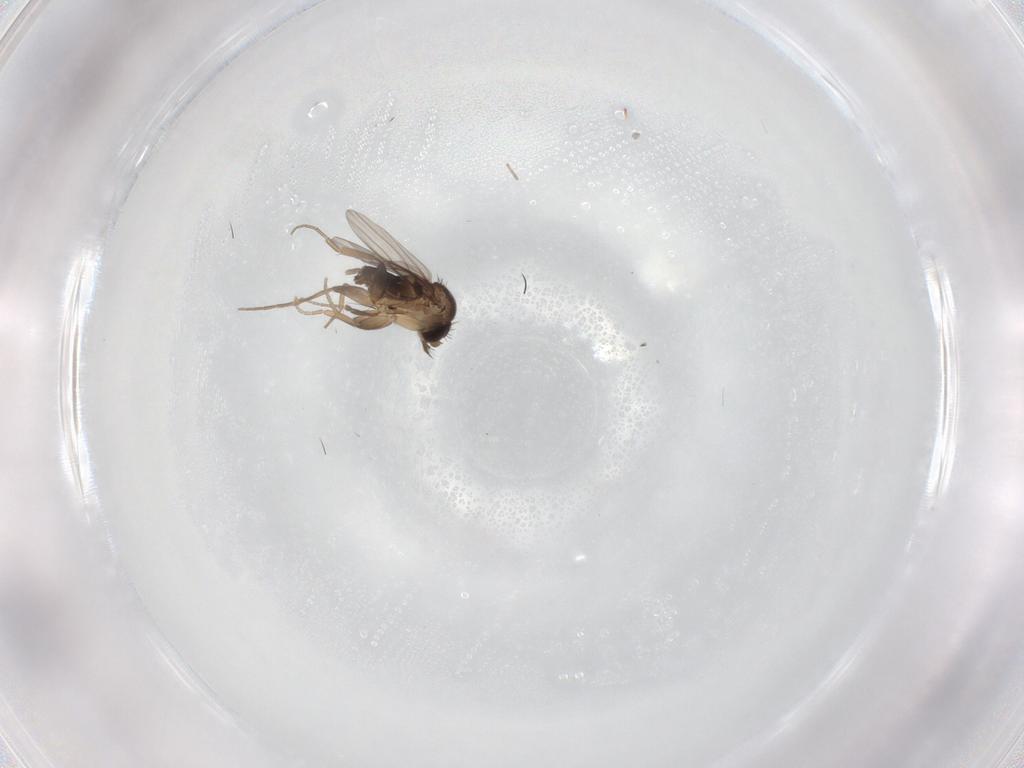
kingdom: Animalia
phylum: Arthropoda
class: Insecta
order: Diptera
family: Phoridae
